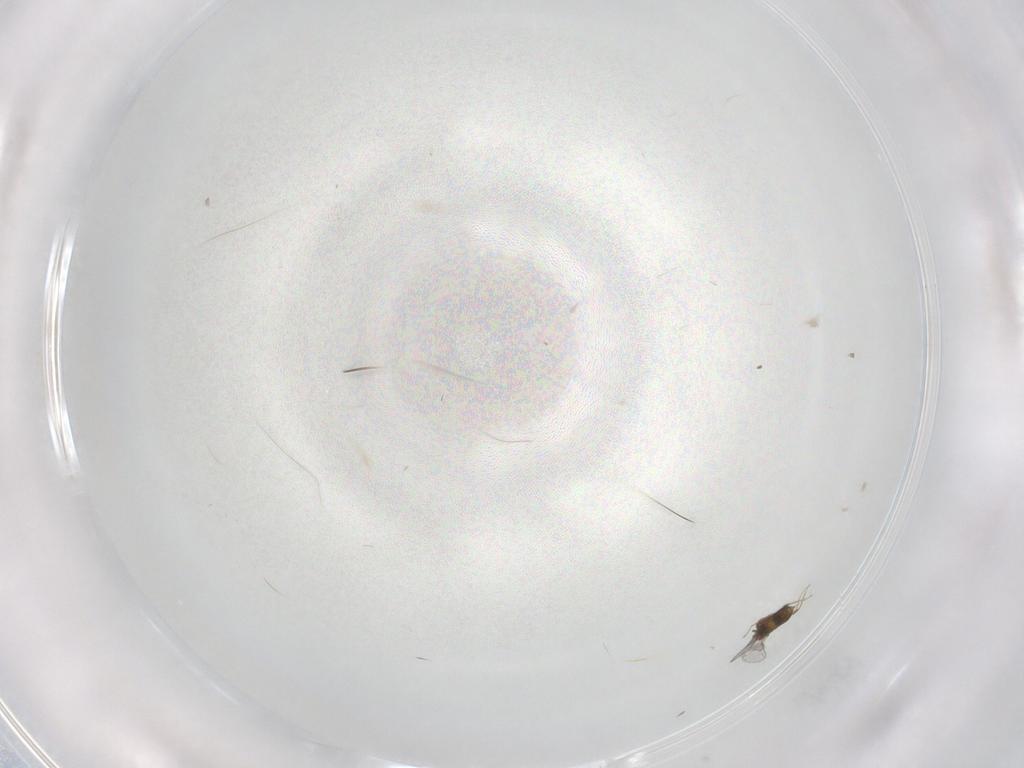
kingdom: Animalia
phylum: Arthropoda
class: Insecta
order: Hymenoptera
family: Trichogrammatidae
